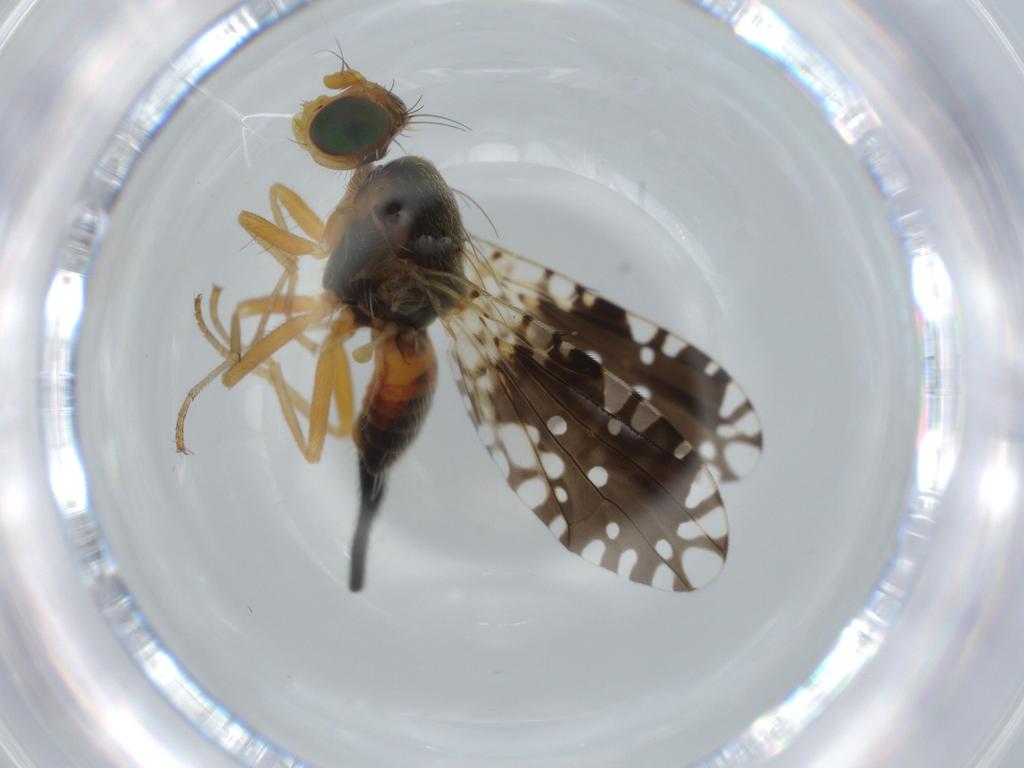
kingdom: Animalia
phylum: Arthropoda
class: Insecta
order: Diptera
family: Tephritidae
